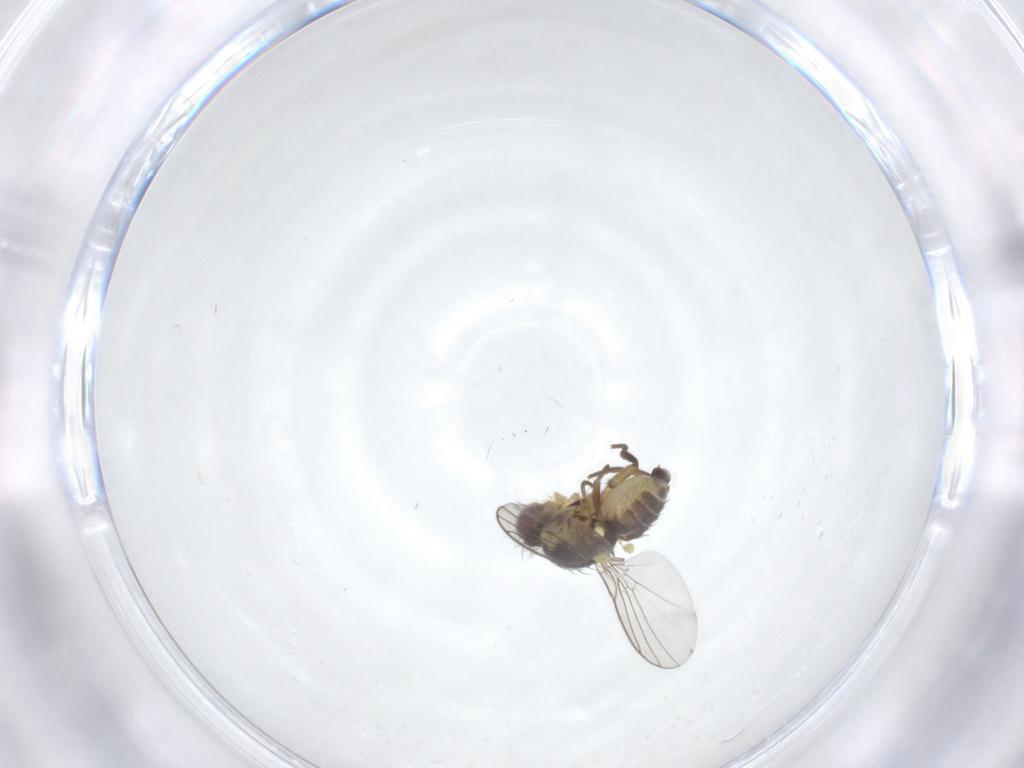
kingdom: Animalia
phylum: Arthropoda
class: Insecta
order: Diptera
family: Agromyzidae
